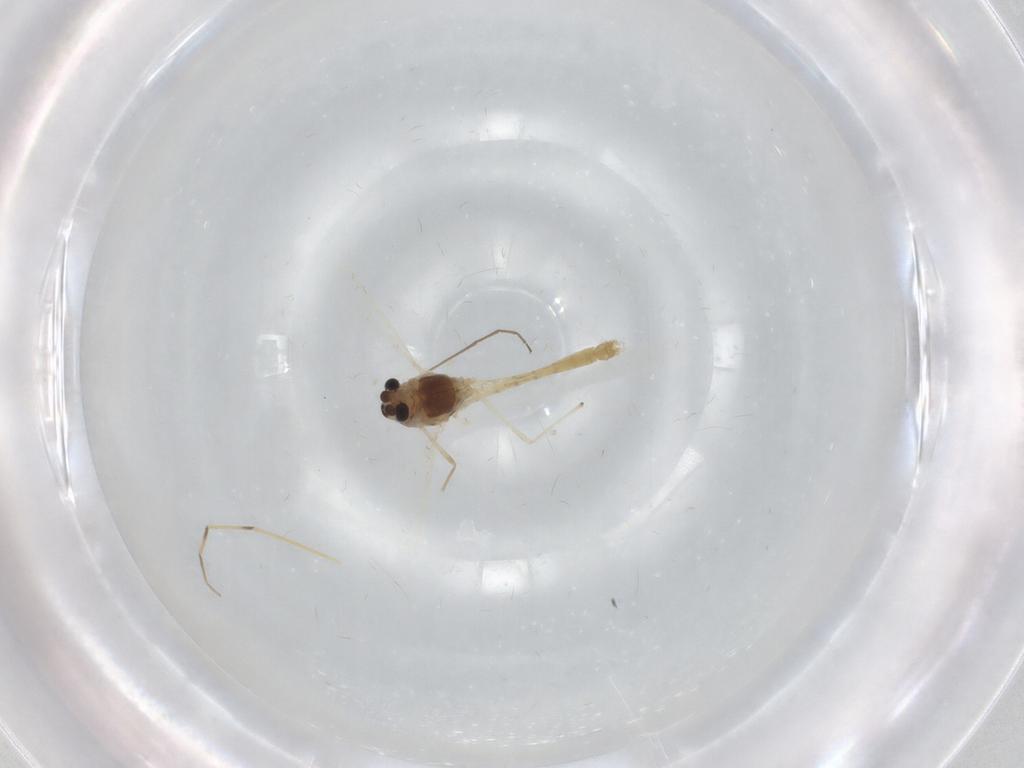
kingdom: Animalia
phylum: Arthropoda
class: Insecta
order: Diptera
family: Chironomidae
